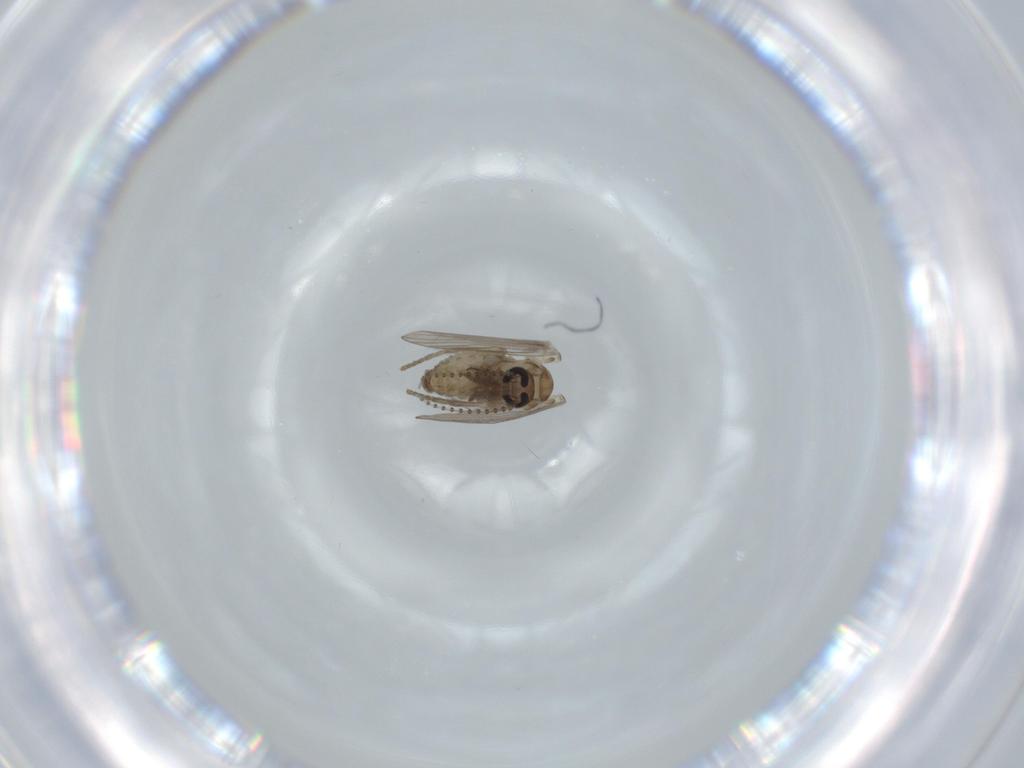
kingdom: Animalia
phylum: Arthropoda
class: Insecta
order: Diptera
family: Psychodidae
